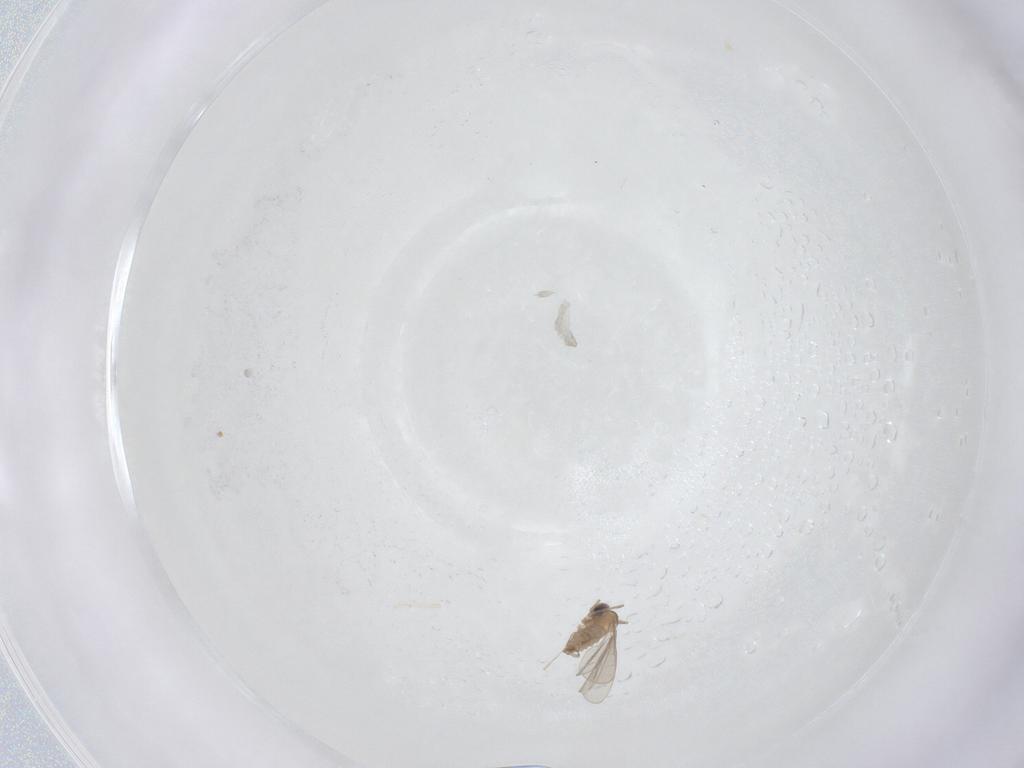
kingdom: Animalia
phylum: Arthropoda
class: Insecta
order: Diptera
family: Cecidomyiidae
